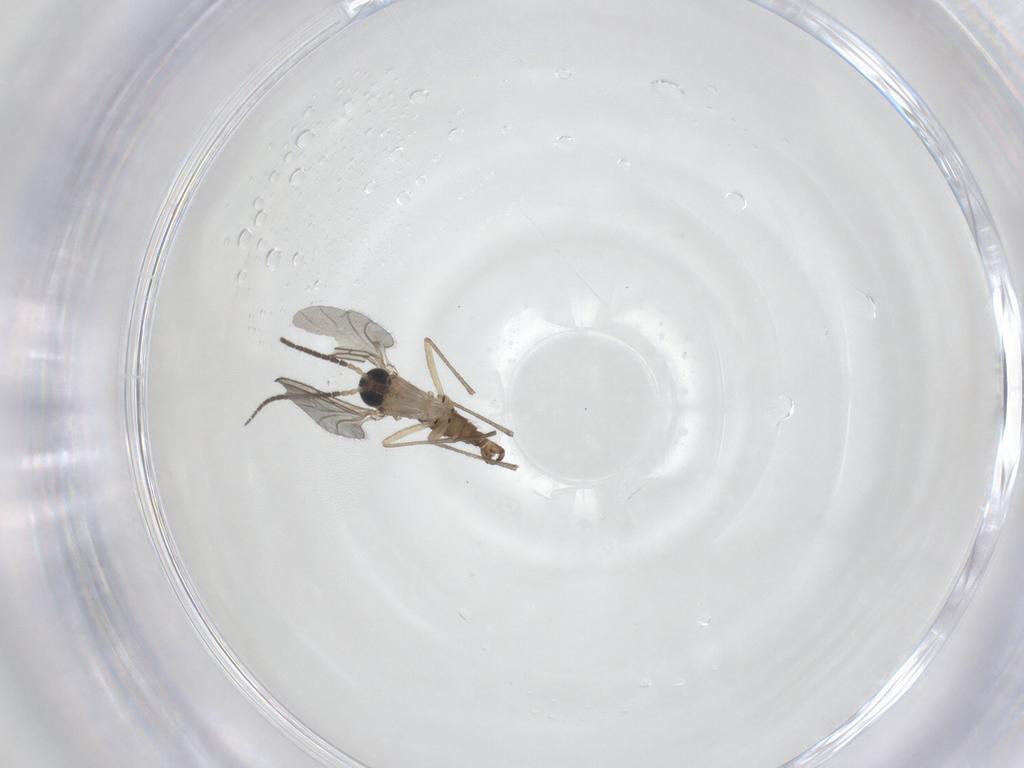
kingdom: Animalia
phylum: Arthropoda
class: Insecta
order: Diptera
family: Sciaridae
